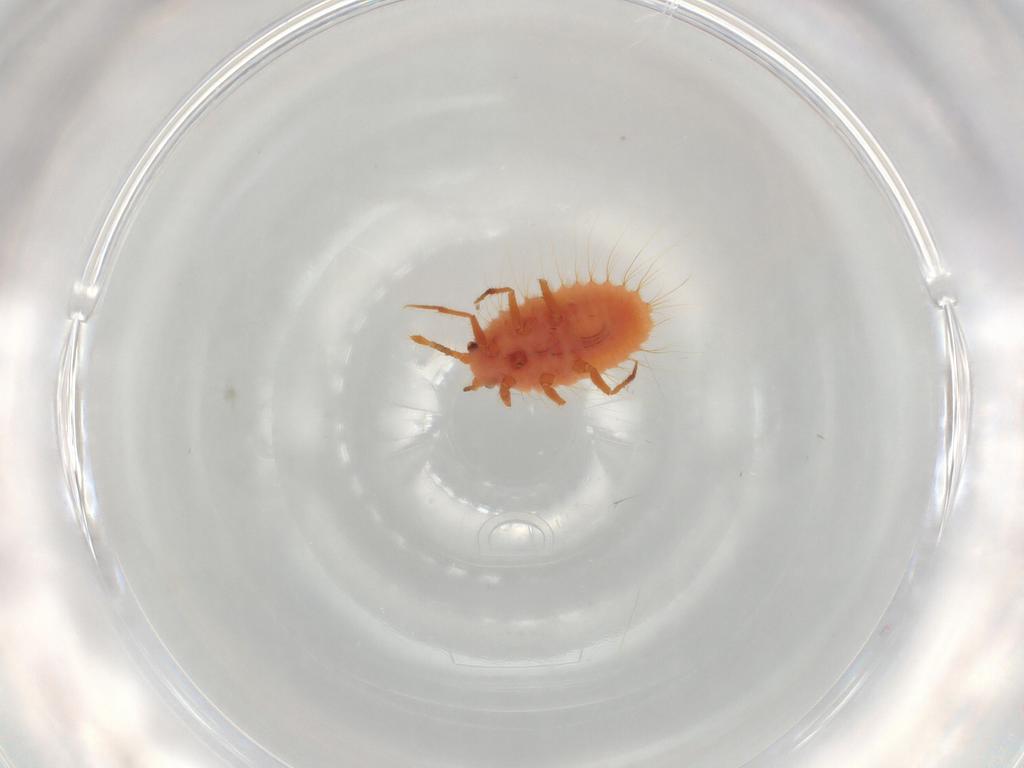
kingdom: Animalia
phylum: Arthropoda
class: Insecta
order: Hemiptera
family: Coccoidea_incertae_sedis
